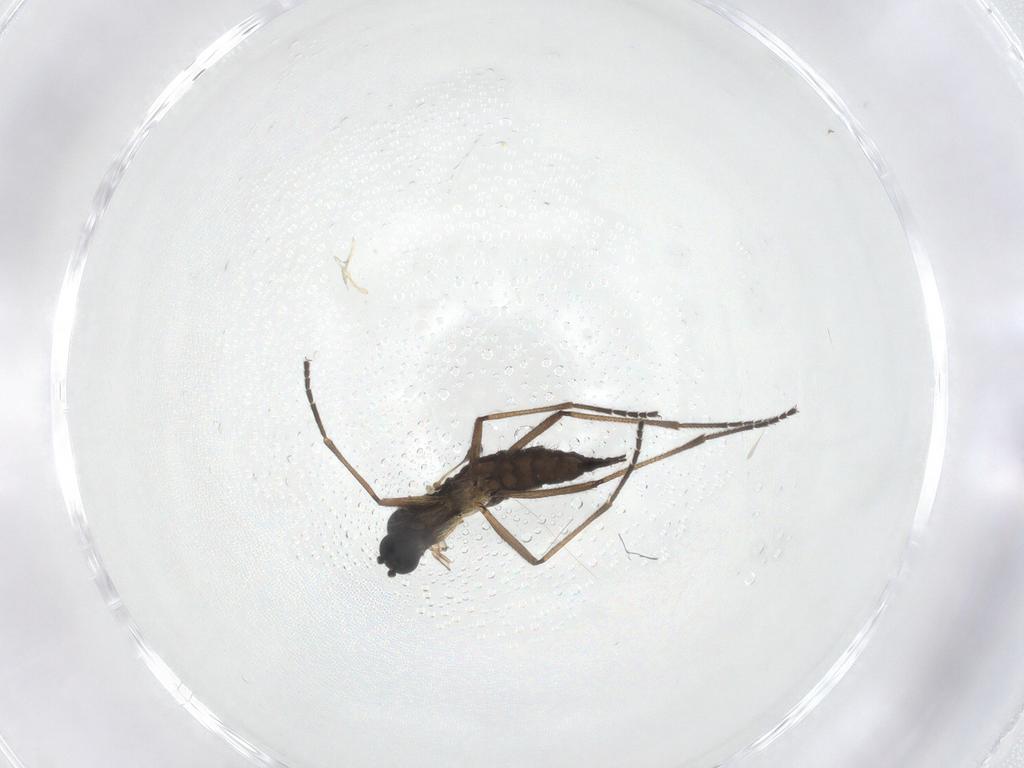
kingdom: Animalia
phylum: Arthropoda
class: Insecta
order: Diptera
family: Sciaridae
